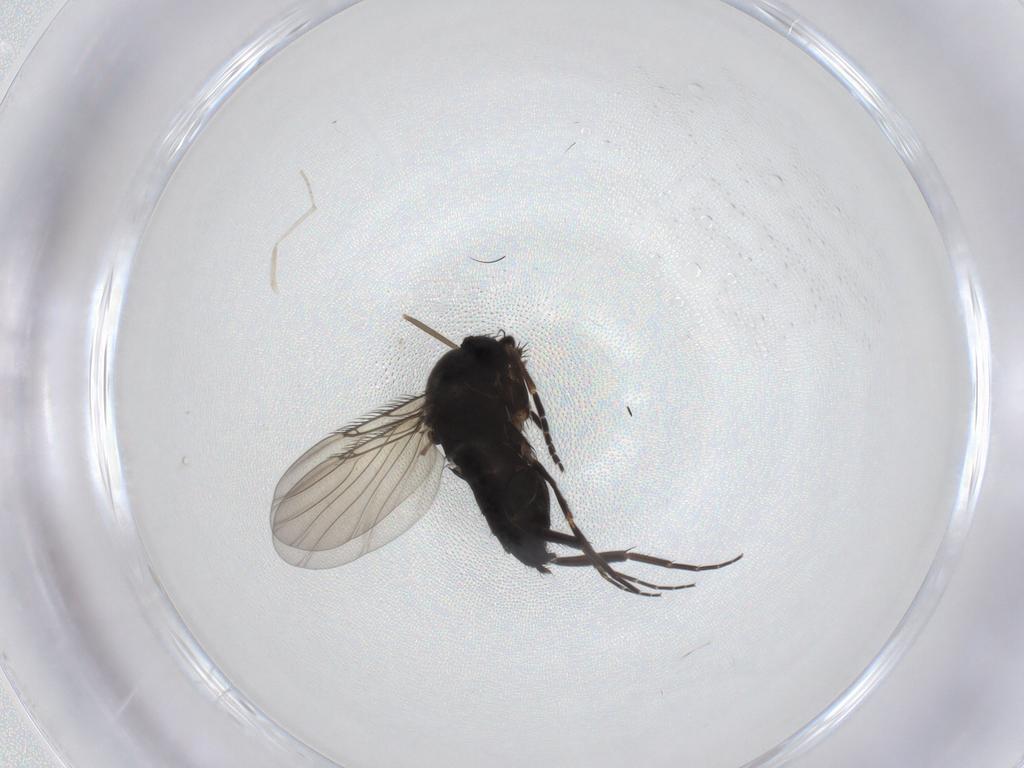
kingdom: Animalia
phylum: Arthropoda
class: Insecta
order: Diptera
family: Phoridae
